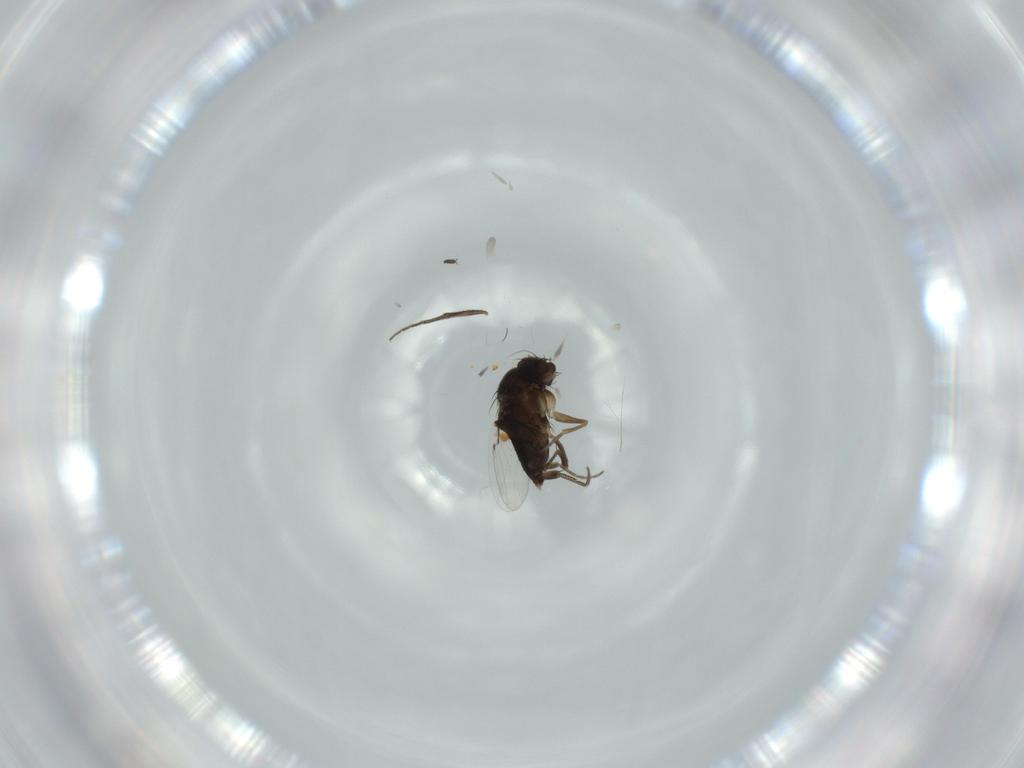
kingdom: Animalia
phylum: Arthropoda
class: Insecta
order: Diptera
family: Phoridae
